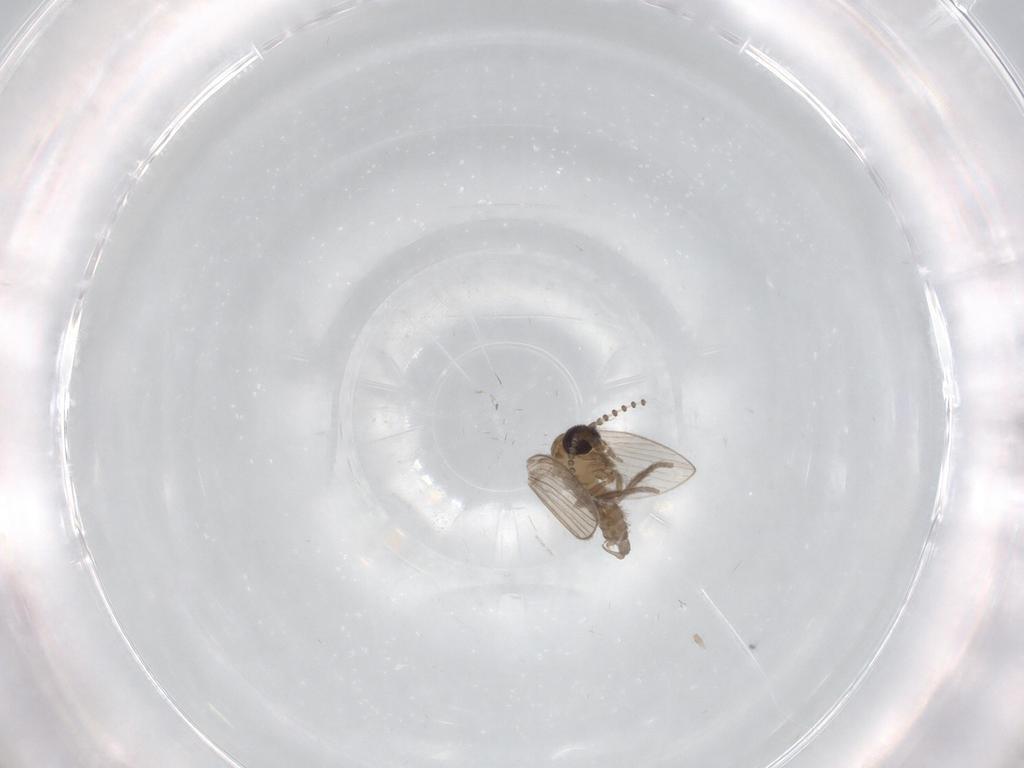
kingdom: Animalia
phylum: Arthropoda
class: Insecta
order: Diptera
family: Psychodidae
